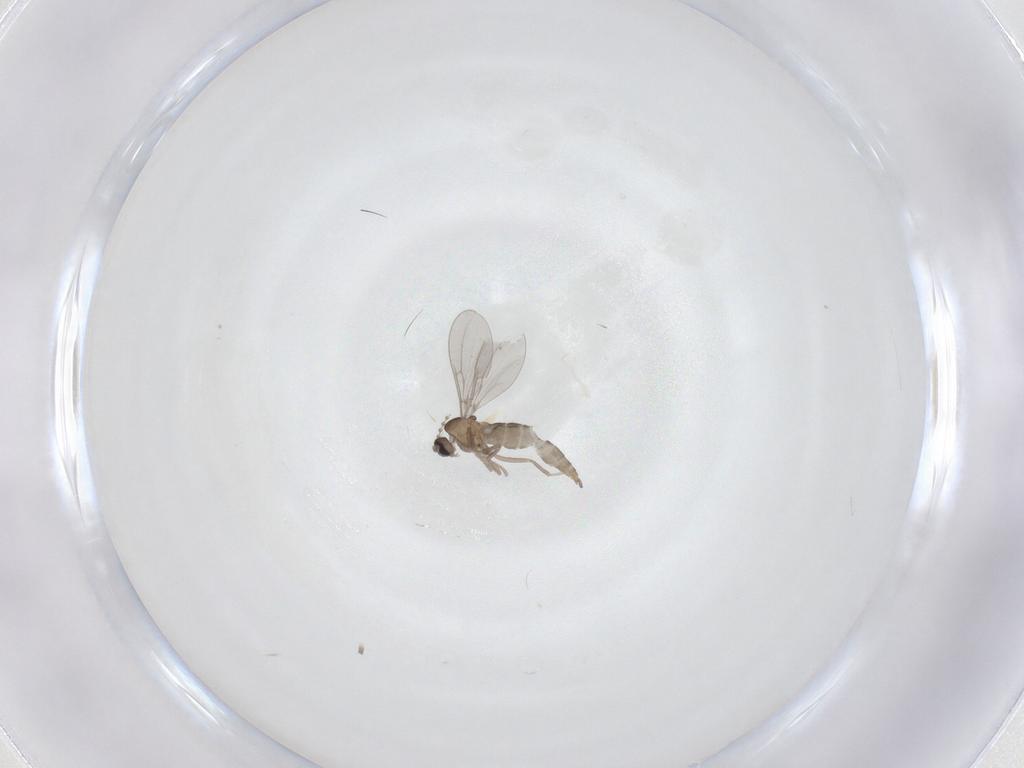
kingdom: Animalia
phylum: Arthropoda
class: Insecta
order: Diptera
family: Cecidomyiidae
